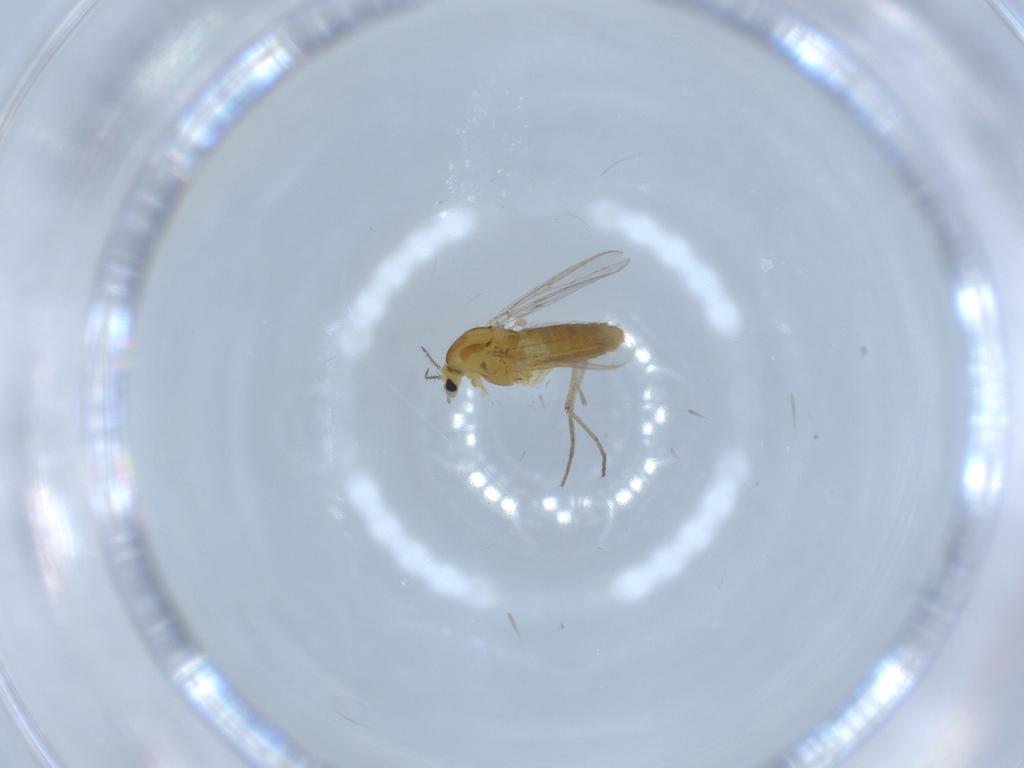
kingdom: Animalia
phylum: Arthropoda
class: Insecta
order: Diptera
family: Chironomidae
